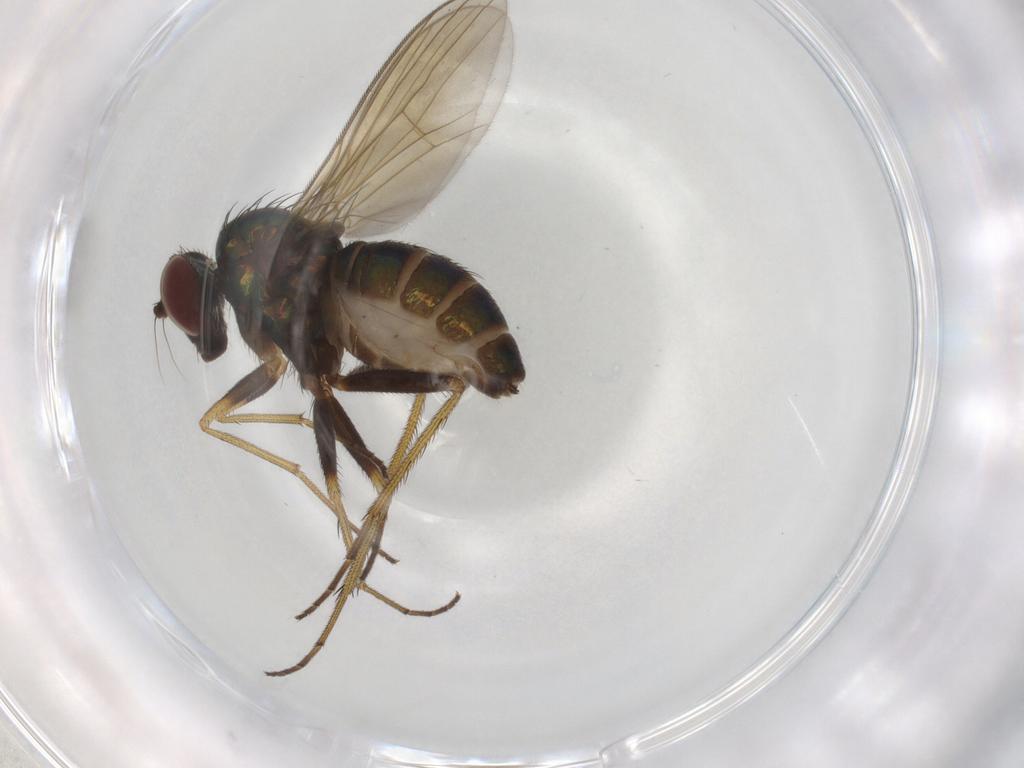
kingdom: Animalia
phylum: Arthropoda
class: Insecta
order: Diptera
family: Dolichopodidae
